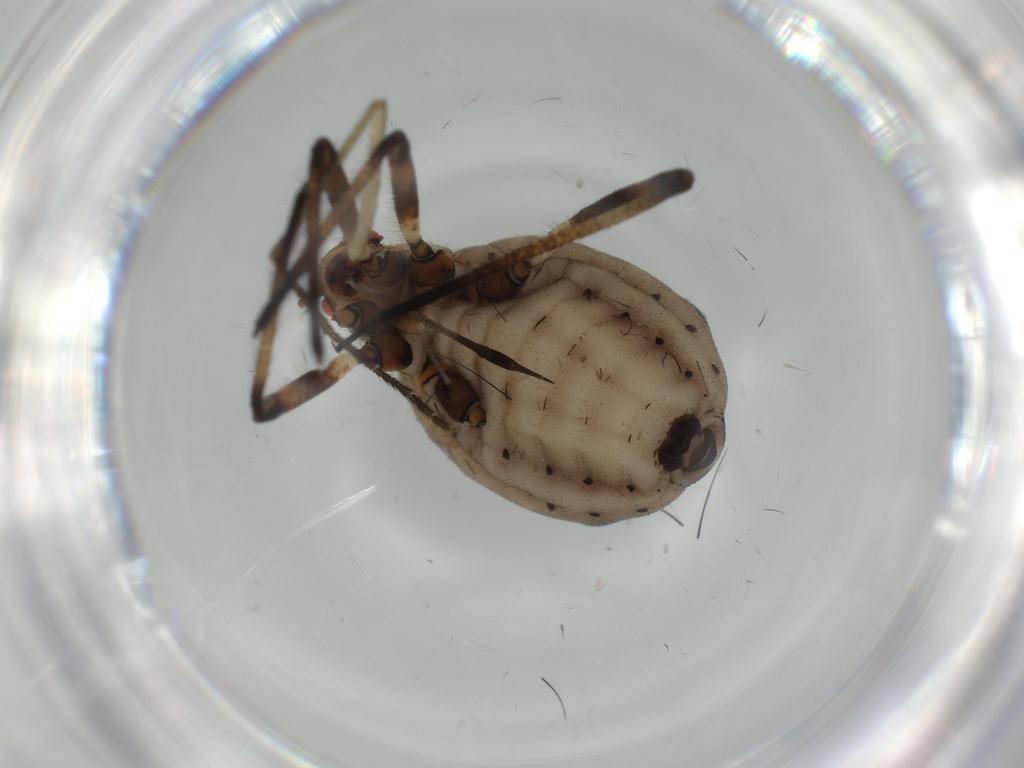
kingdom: Animalia
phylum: Arthropoda
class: Insecta
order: Hemiptera
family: Aphididae
